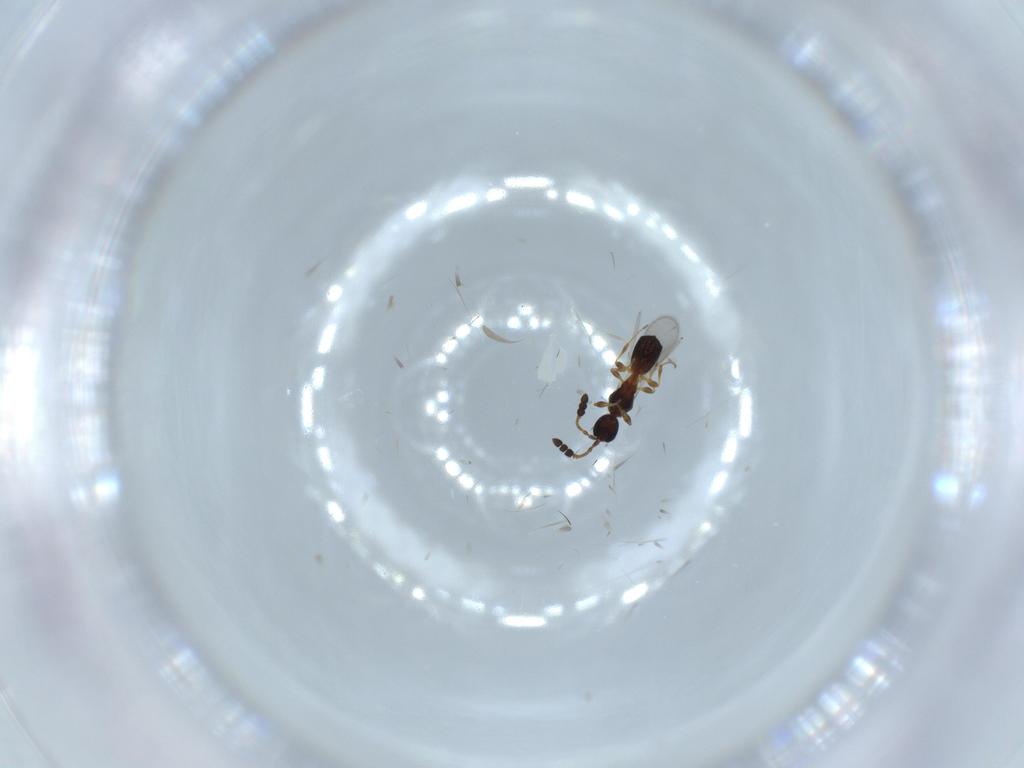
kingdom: Animalia
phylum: Arthropoda
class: Insecta
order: Hymenoptera
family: Diapriidae
